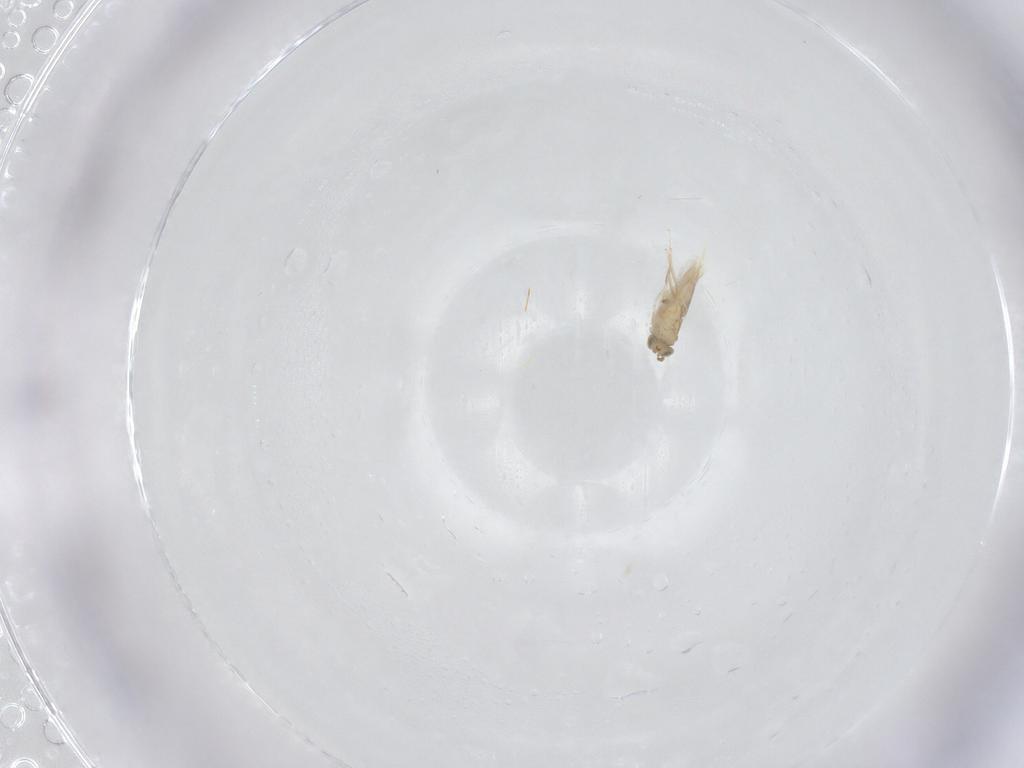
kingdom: Animalia
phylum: Arthropoda
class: Insecta
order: Hymenoptera
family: Aphelinidae
